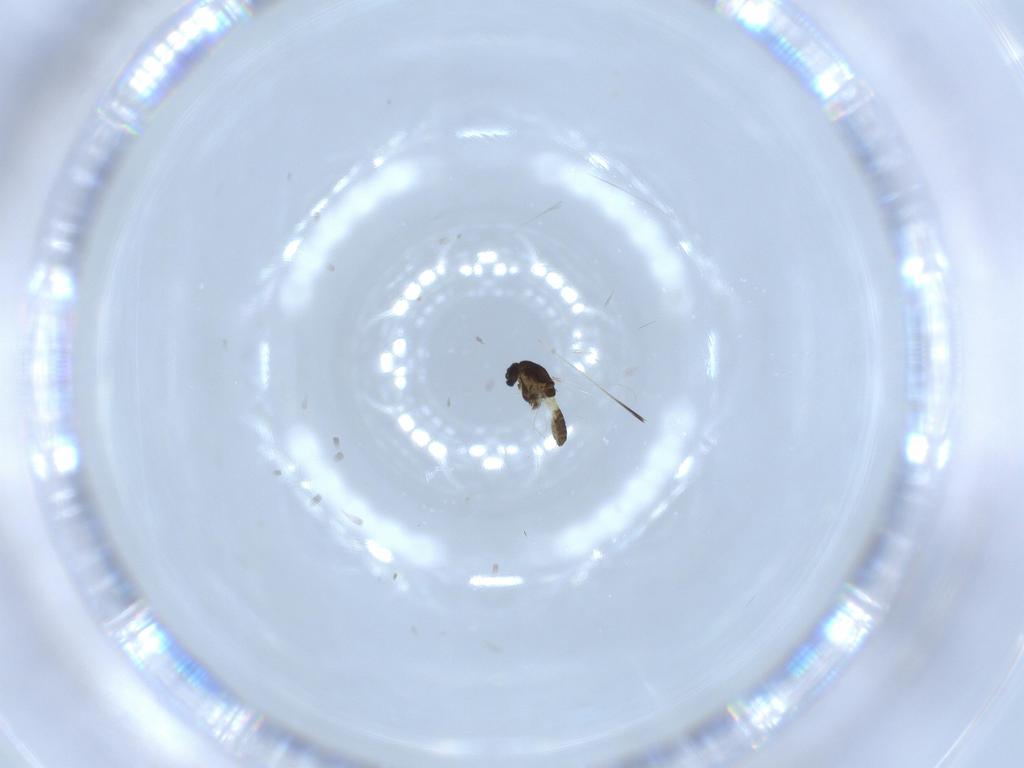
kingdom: Animalia
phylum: Arthropoda
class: Insecta
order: Diptera
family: Chironomidae
